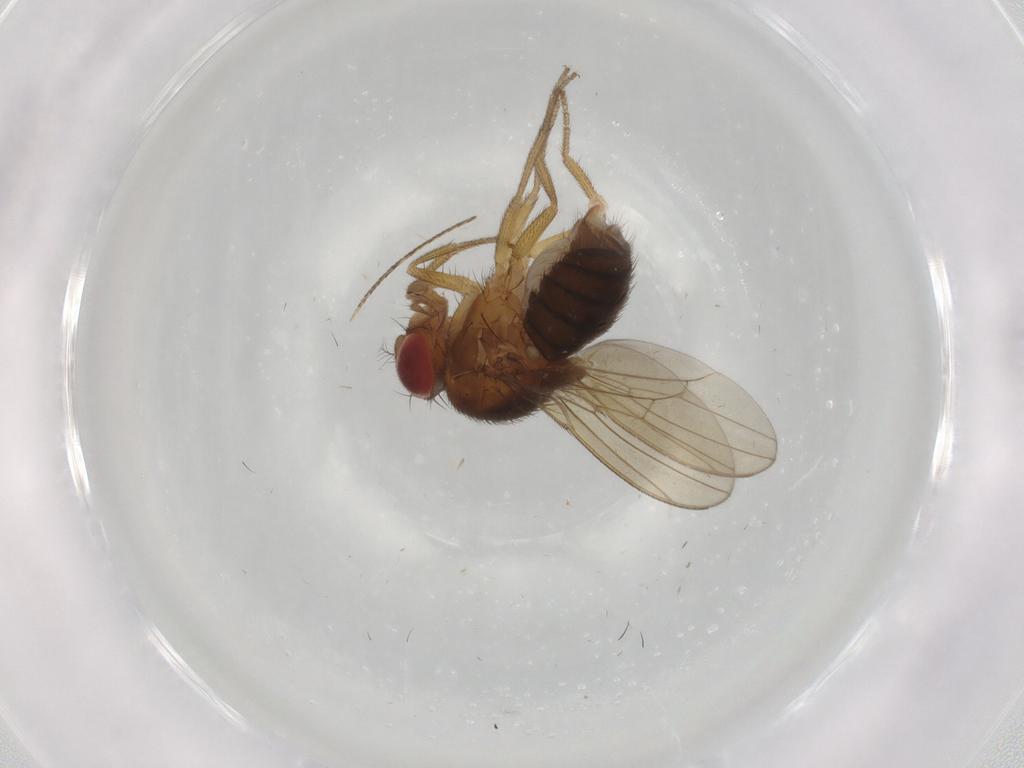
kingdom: Animalia
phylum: Arthropoda
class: Insecta
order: Diptera
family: Drosophilidae
